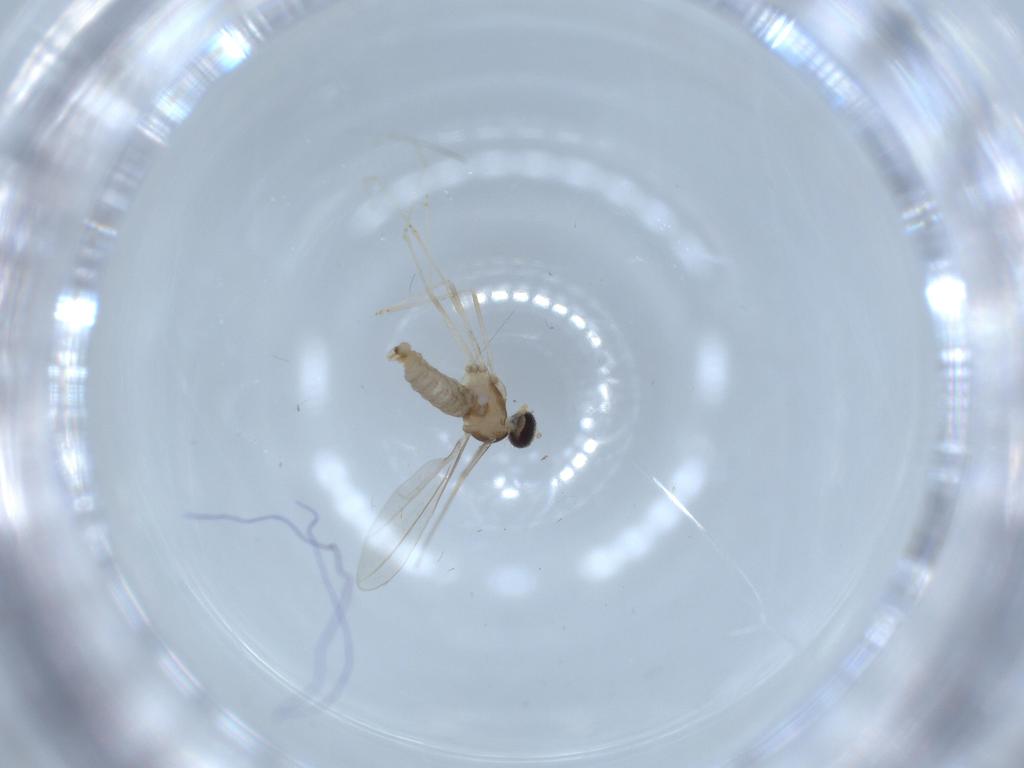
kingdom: Animalia
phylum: Arthropoda
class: Insecta
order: Diptera
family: Cecidomyiidae
